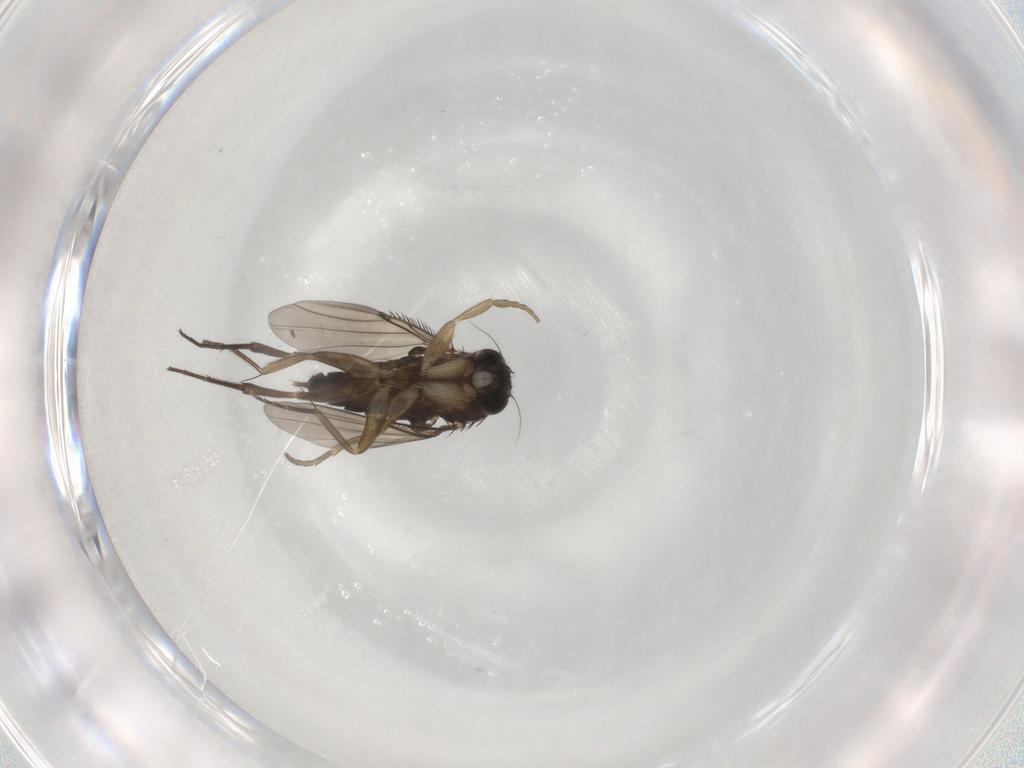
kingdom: Animalia
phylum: Arthropoda
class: Insecta
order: Diptera
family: Phoridae
